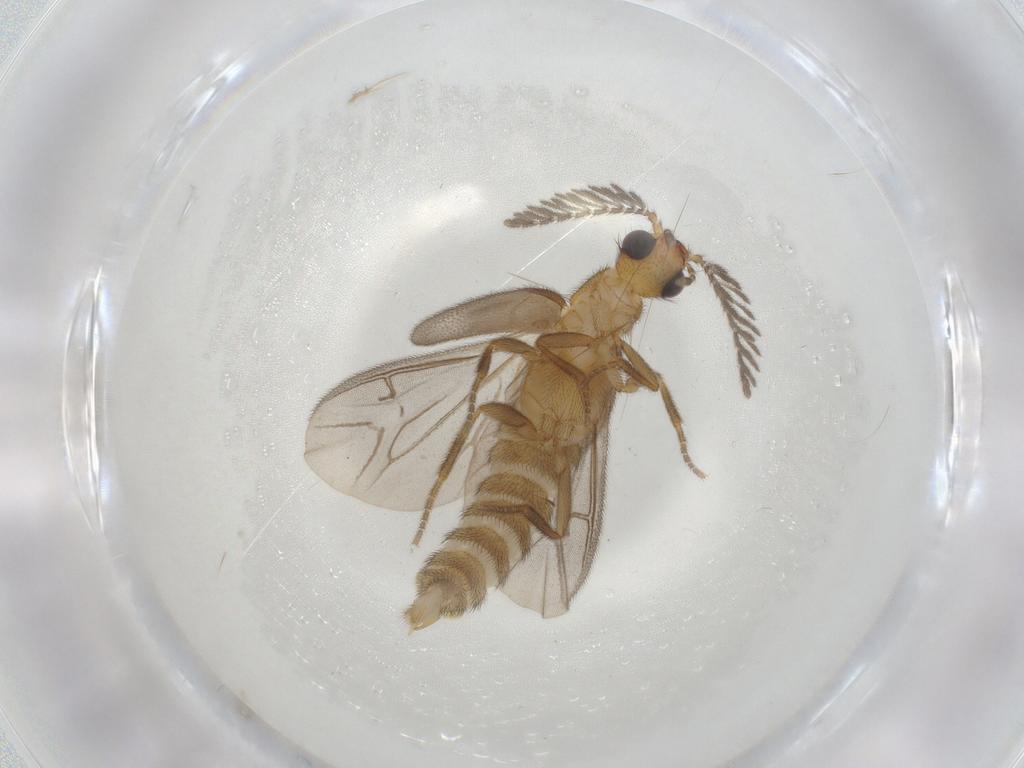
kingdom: Animalia
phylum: Arthropoda
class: Insecta
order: Coleoptera
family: Phengodidae
